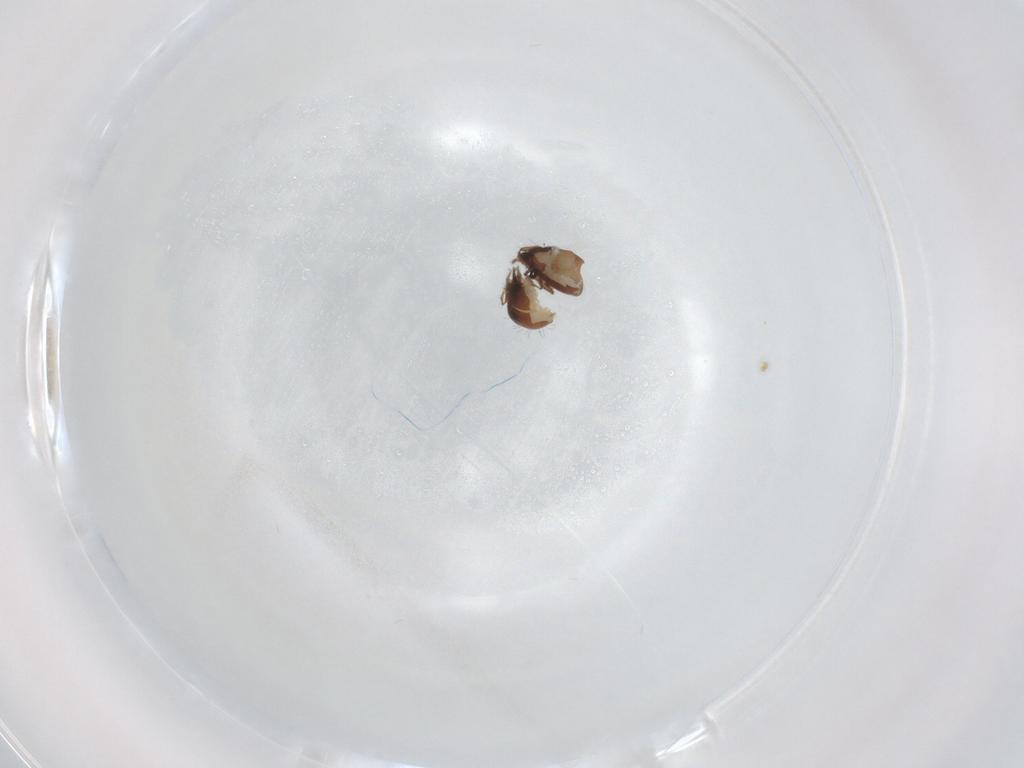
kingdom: Animalia
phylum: Arthropoda
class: Arachnida
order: Sarcoptiformes
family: Humerobatidae
